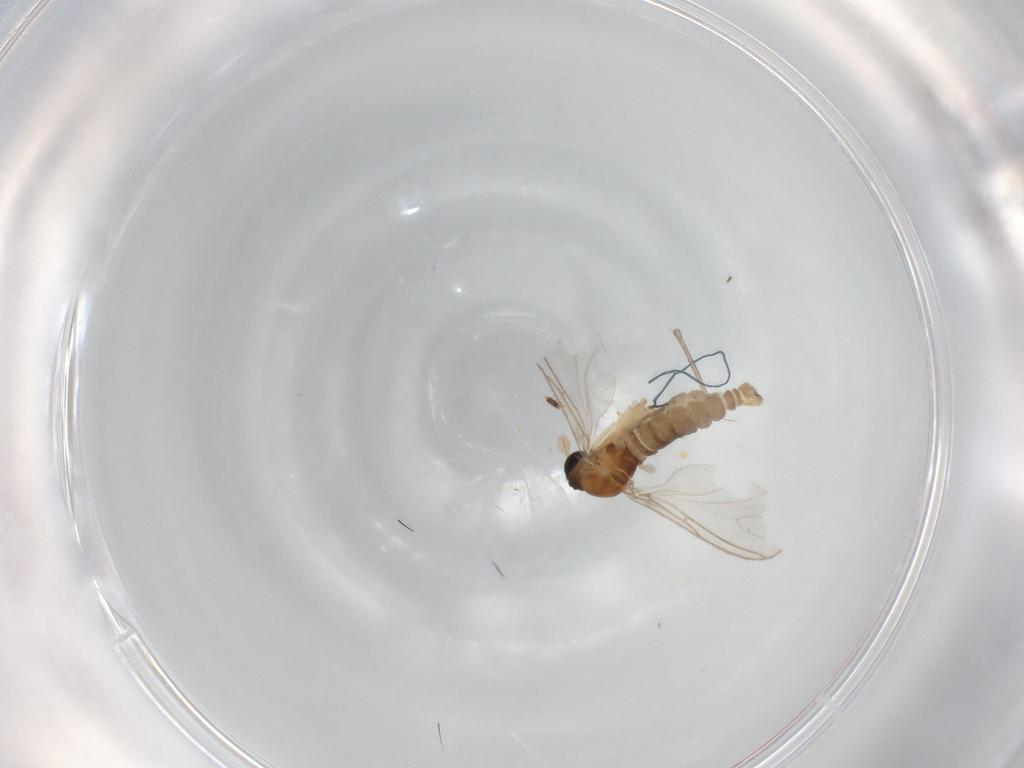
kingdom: Animalia
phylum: Arthropoda
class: Insecta
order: Diptera
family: Sciaridae
